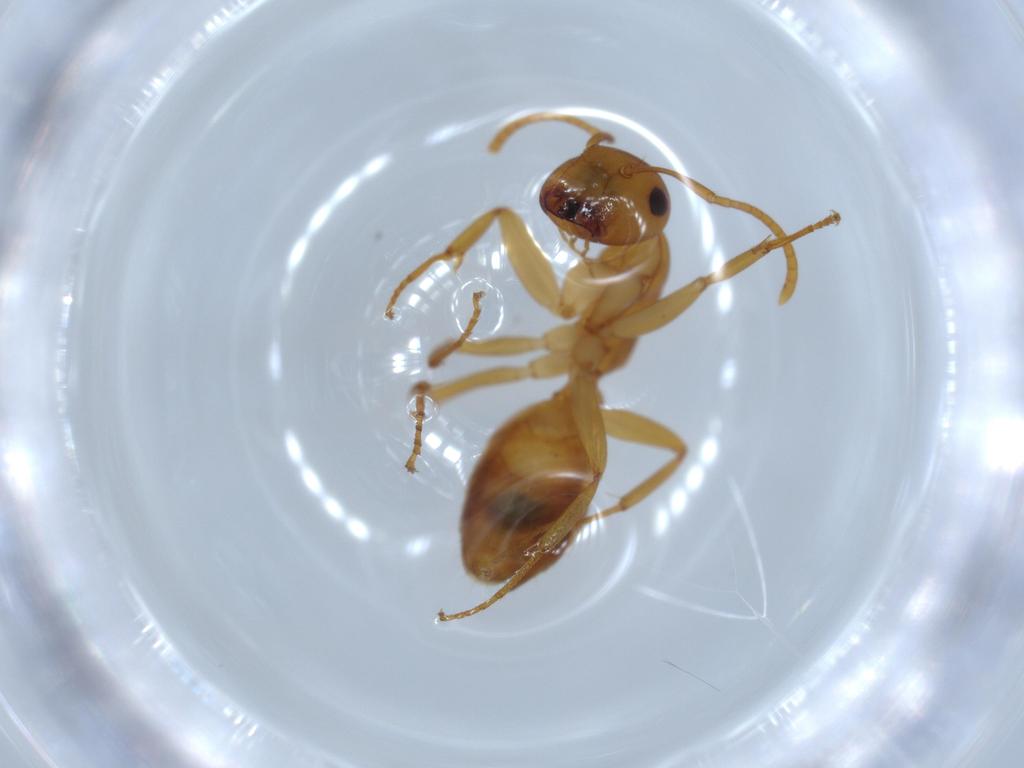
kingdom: Animalia
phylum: Arthropoda
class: Insecta
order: Hymenoptera
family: Formicidae
